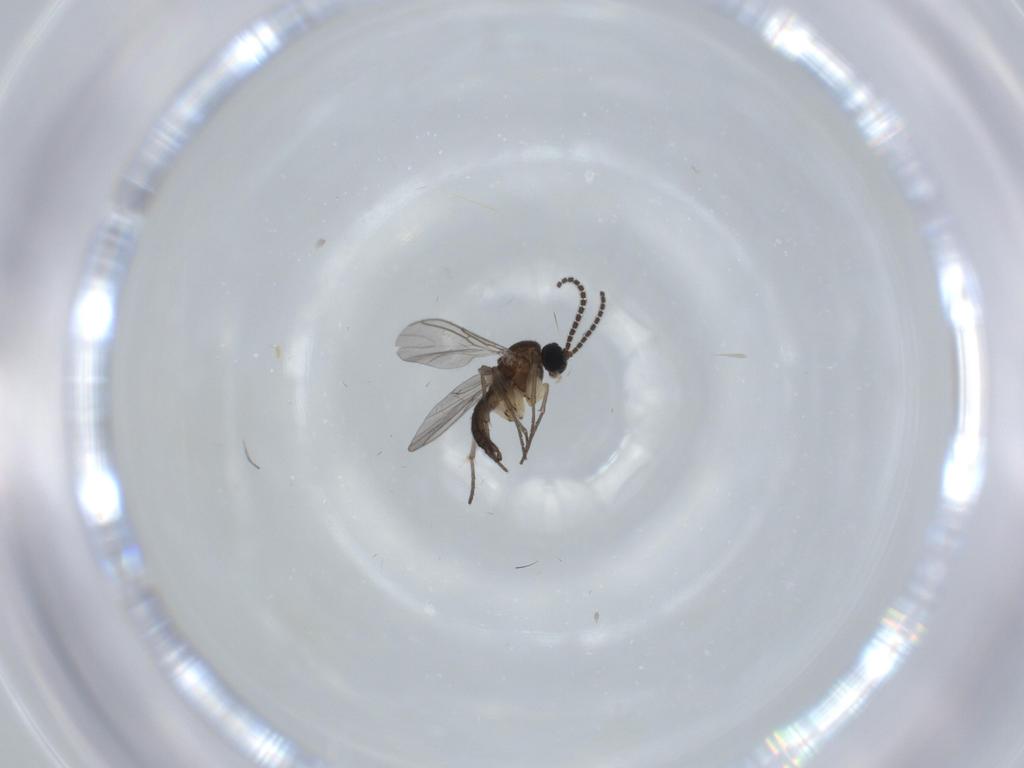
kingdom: Animalia
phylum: Arthropoda
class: Insecta
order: Diptera
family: Sciaridae
